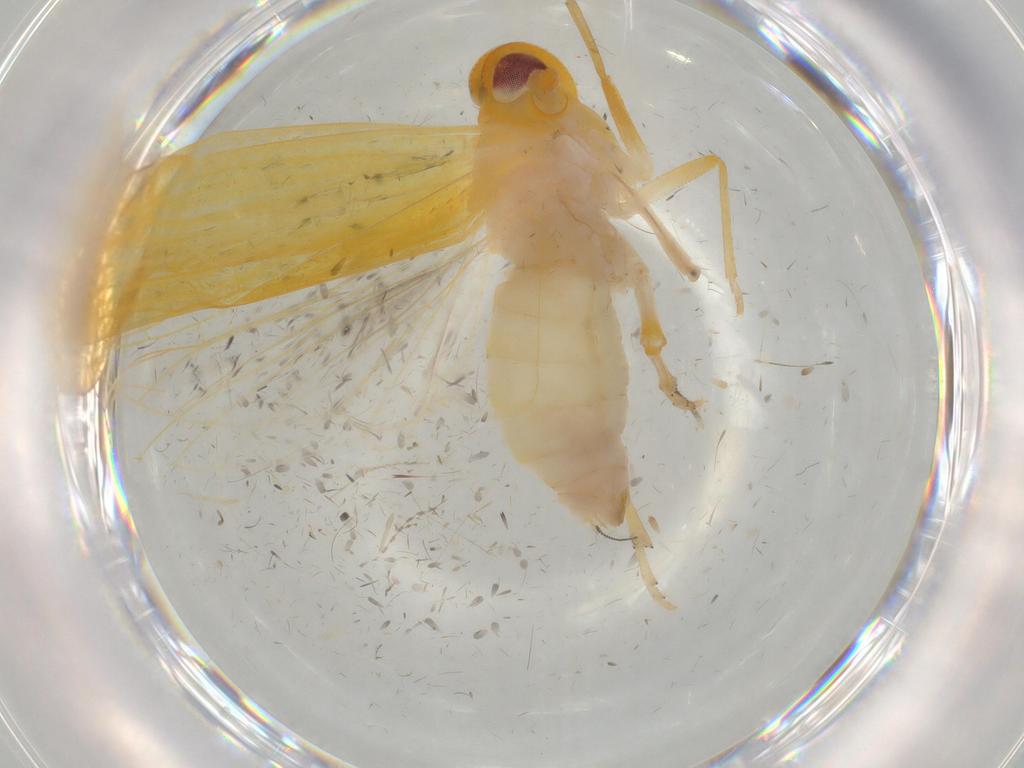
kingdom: Animalia
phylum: Arthropoda
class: Insecta
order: Hemiptera
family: Derbidae
